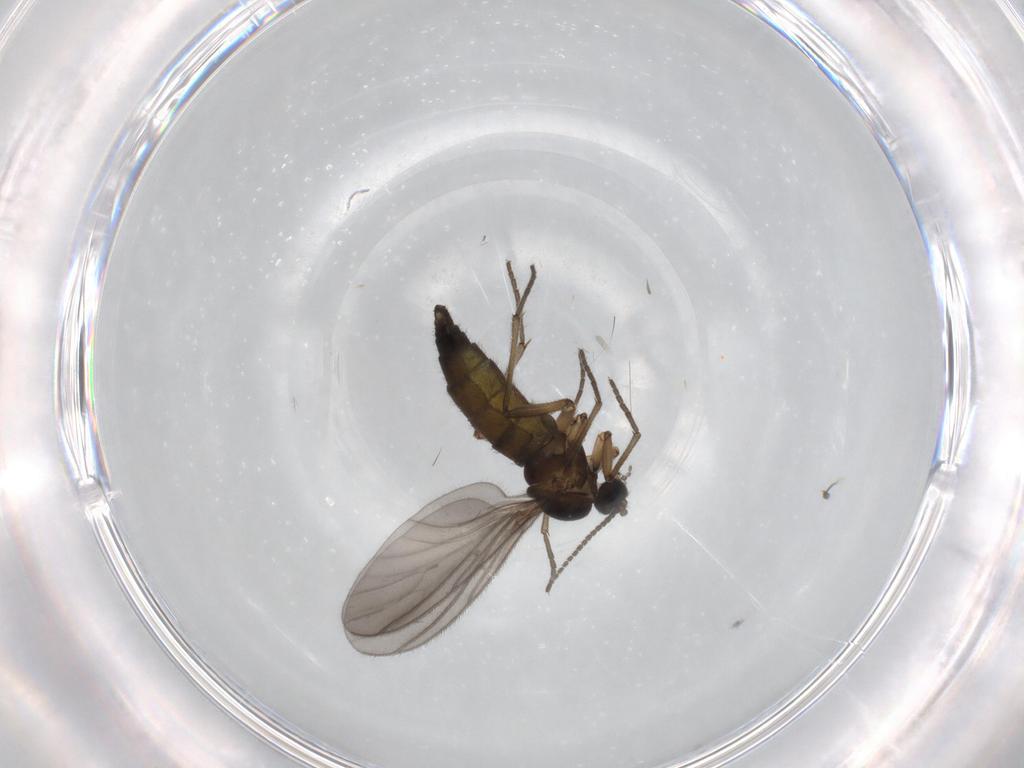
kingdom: Animalia
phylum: Arthropoda
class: Insecta
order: Diptera
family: Sciaridae
